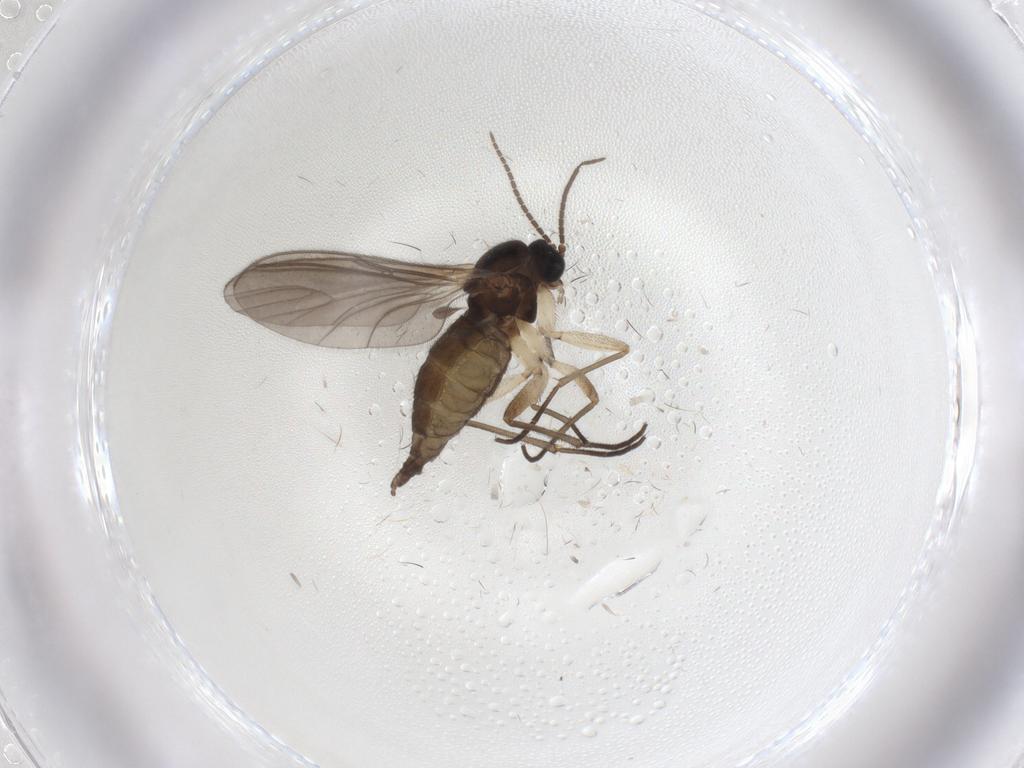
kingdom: Animalia
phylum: Arthropoda
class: Insecta
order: Diptera
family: Sciaridae
